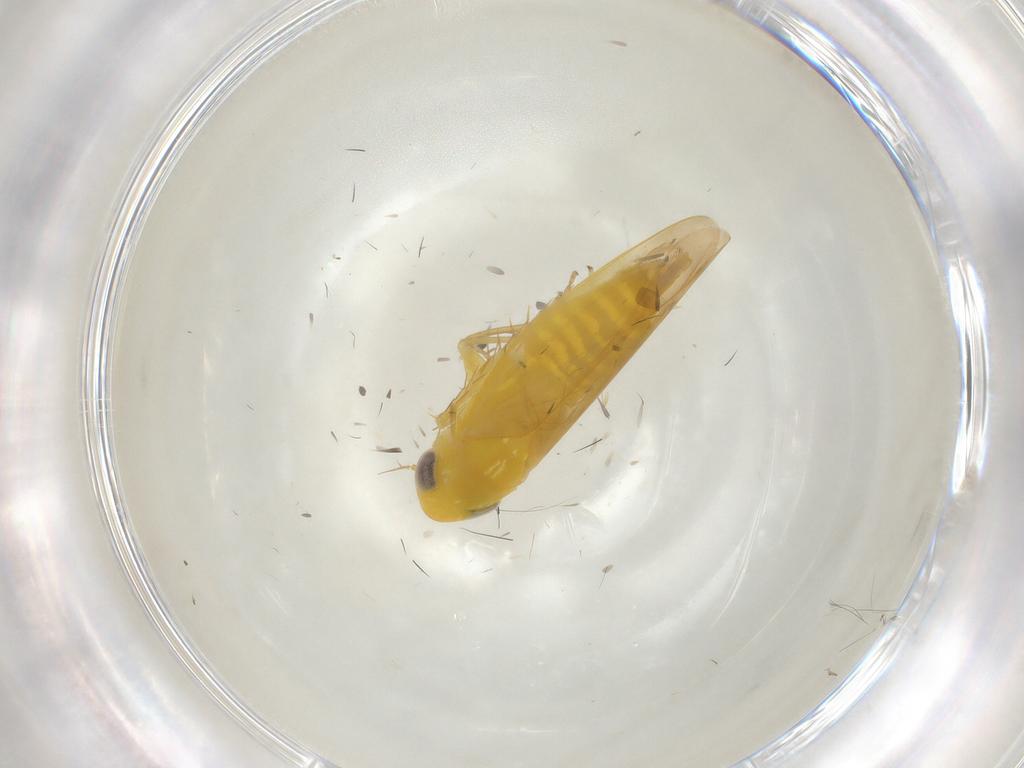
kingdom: Animalia
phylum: Arthropoda
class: Insecta
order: Hemiptera
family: Cicadellidae
